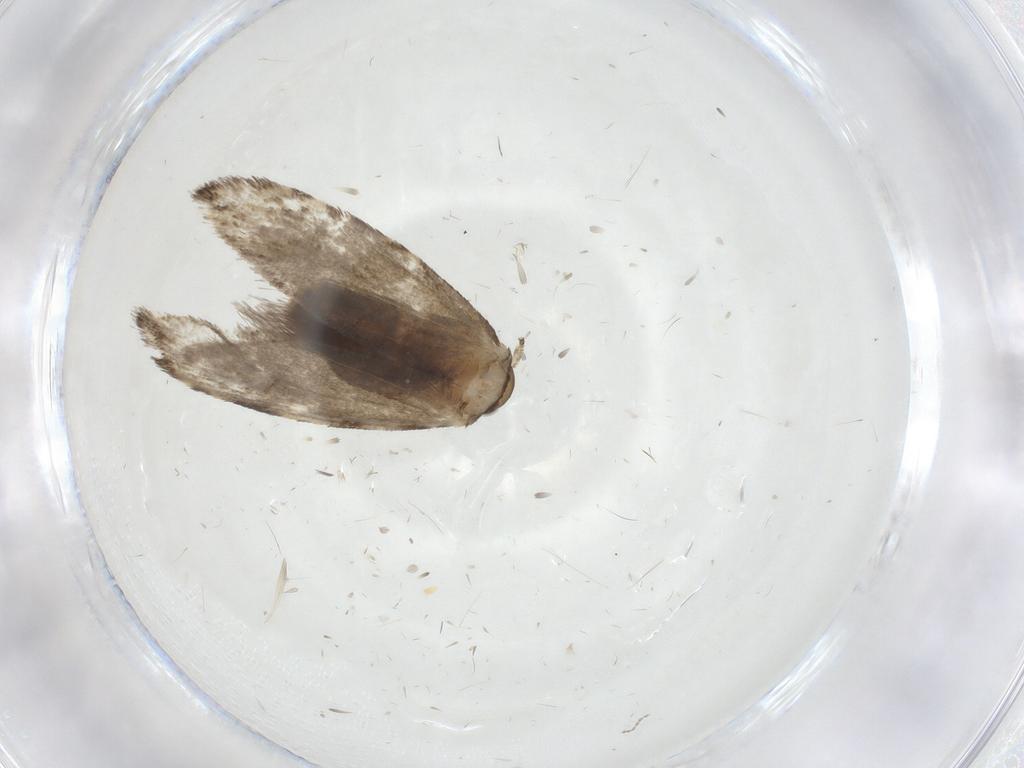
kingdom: Animalia
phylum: Arthropoda
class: Insecta
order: Lepidoptera
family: Tineidae
